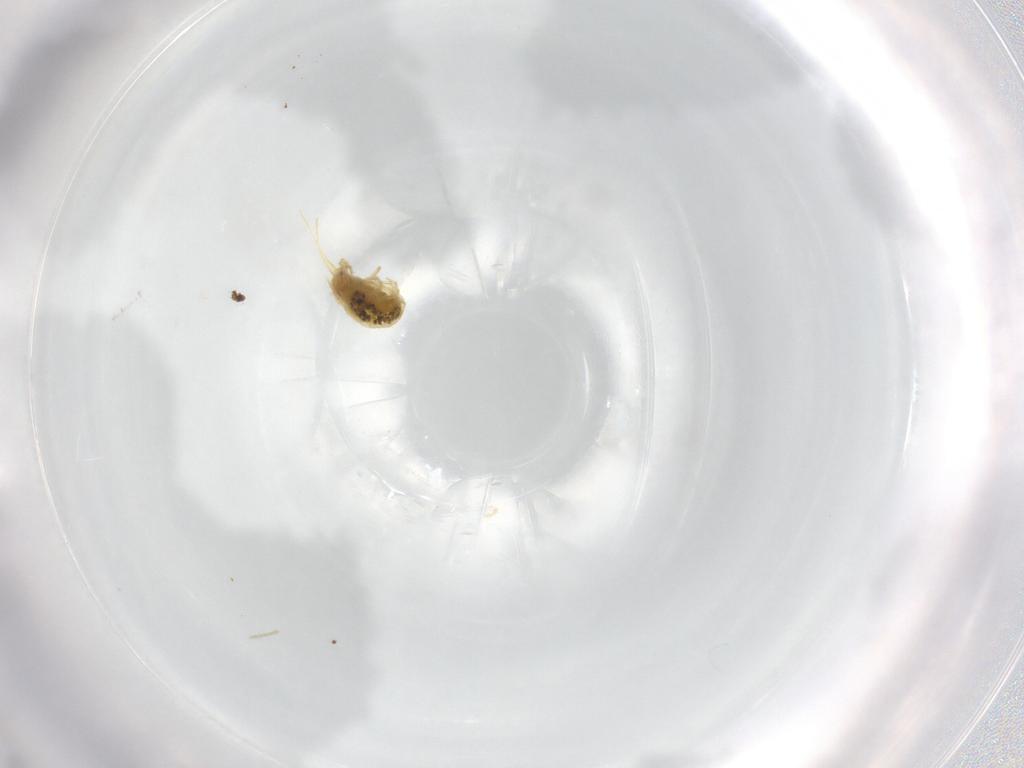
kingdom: Animalia
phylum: Arthropoda
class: Arachnida
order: Trombidiformes
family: Tetranychidae
